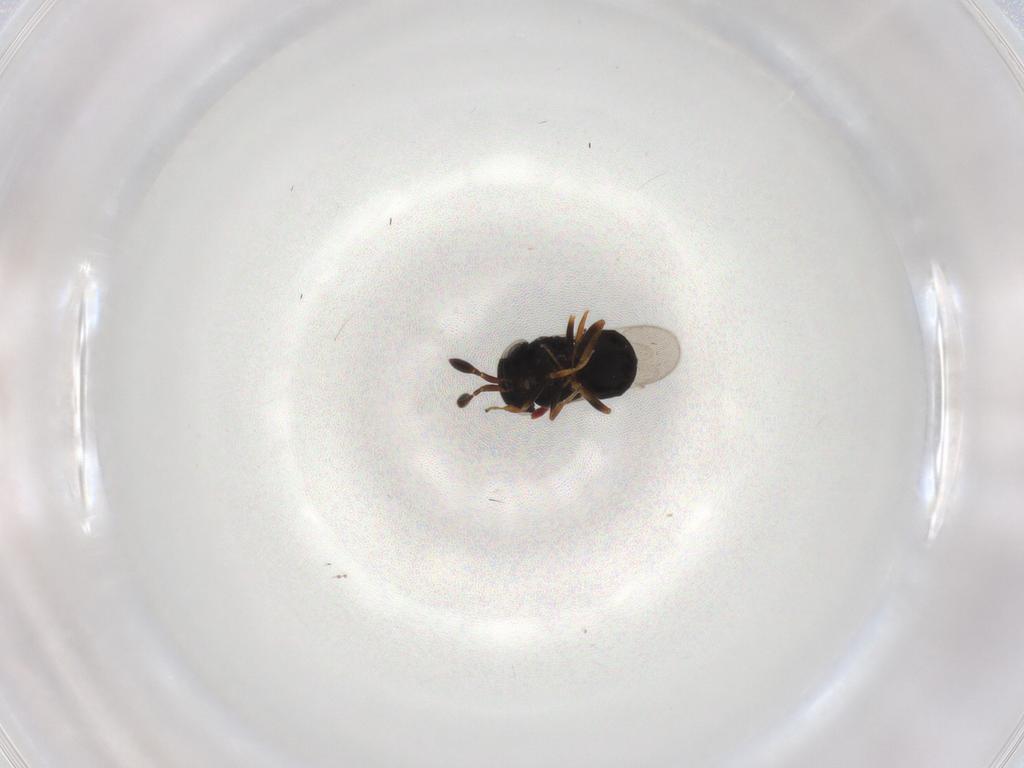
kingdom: Animalia
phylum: Arthropoda
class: Insecta
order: Hymenoptera
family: Scelionidae
